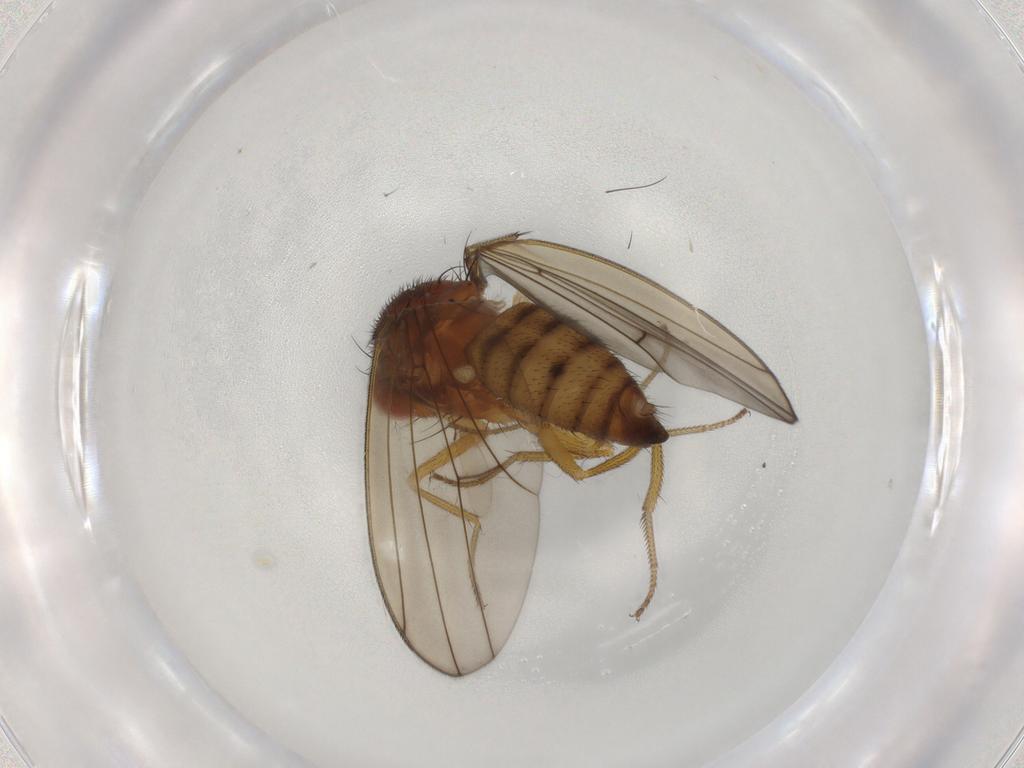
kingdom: Animalia
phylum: Arthropoda
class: Insecta
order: Diptera
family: Drosophilidae
